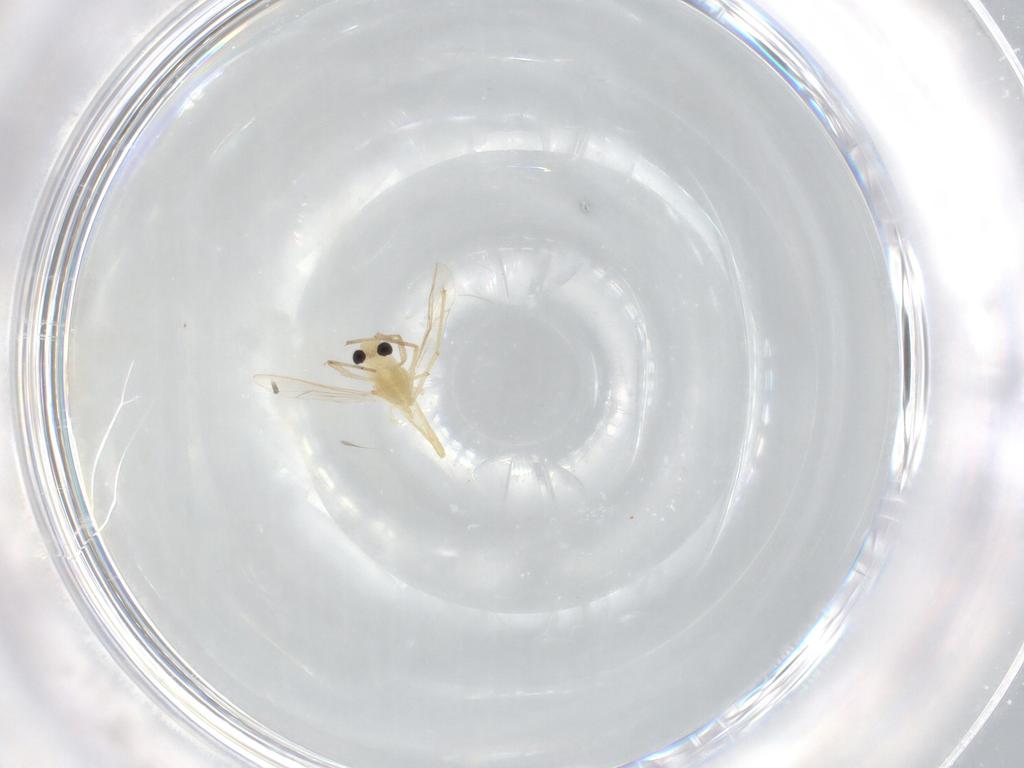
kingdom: Animalia
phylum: Arthropoda
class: Insecta
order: Diptera
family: Chironomidae
